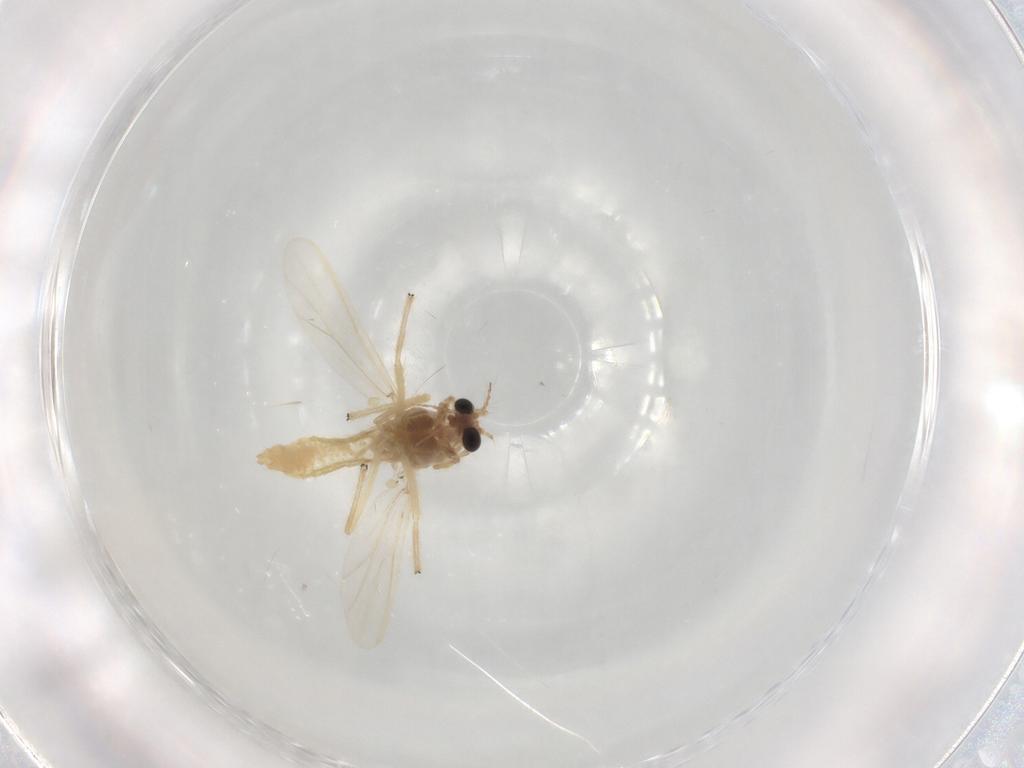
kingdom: Animalia
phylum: Arthropoda
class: Insecta
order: Diptera
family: Chironomidae
